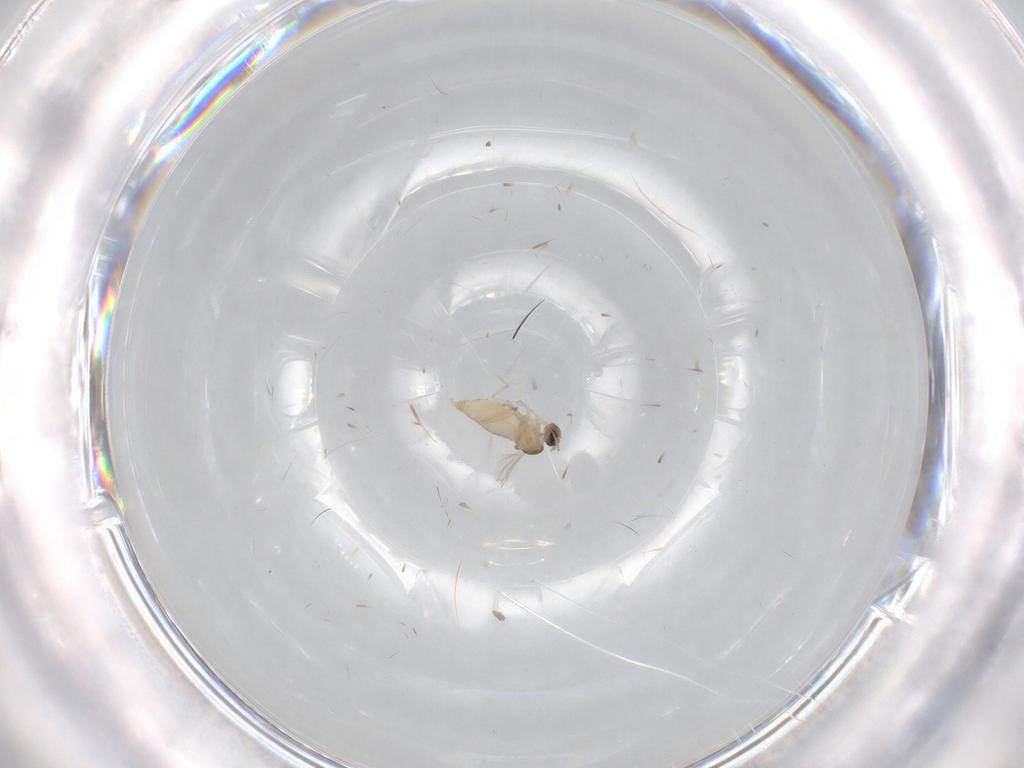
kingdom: Animalia
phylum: Arthropoda
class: Insecta
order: Diptera
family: Cecidomyiidae
